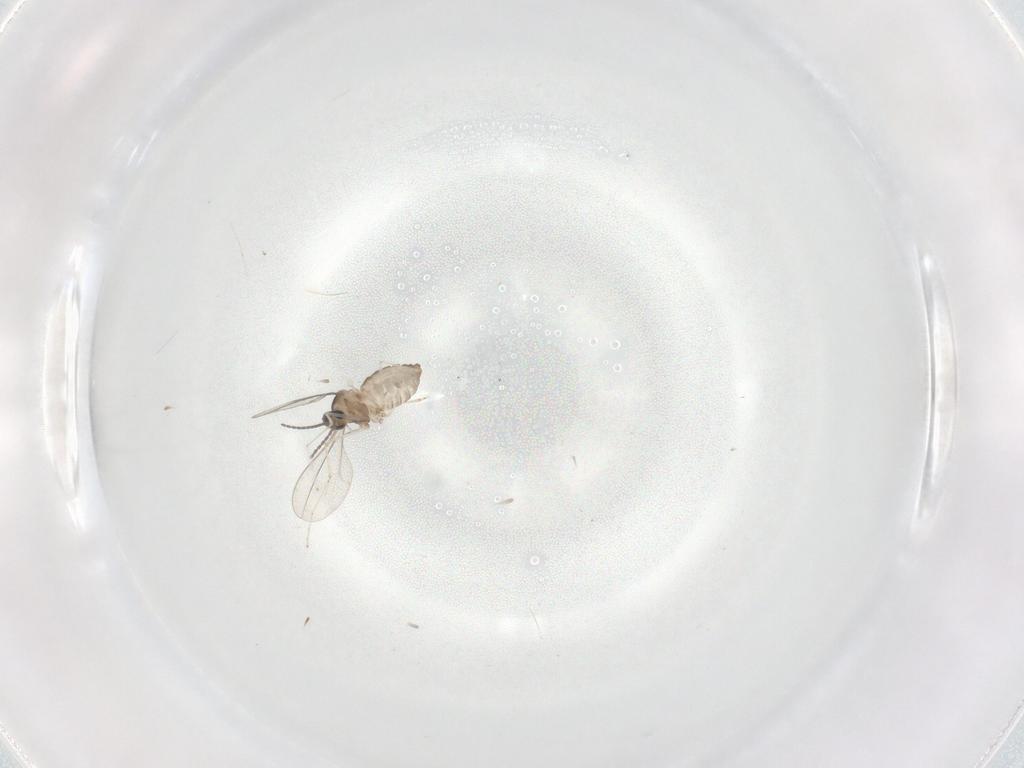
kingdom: Animalia
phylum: Arthropoda
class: Insecta
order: Diptera
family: Cecidomyiidae
